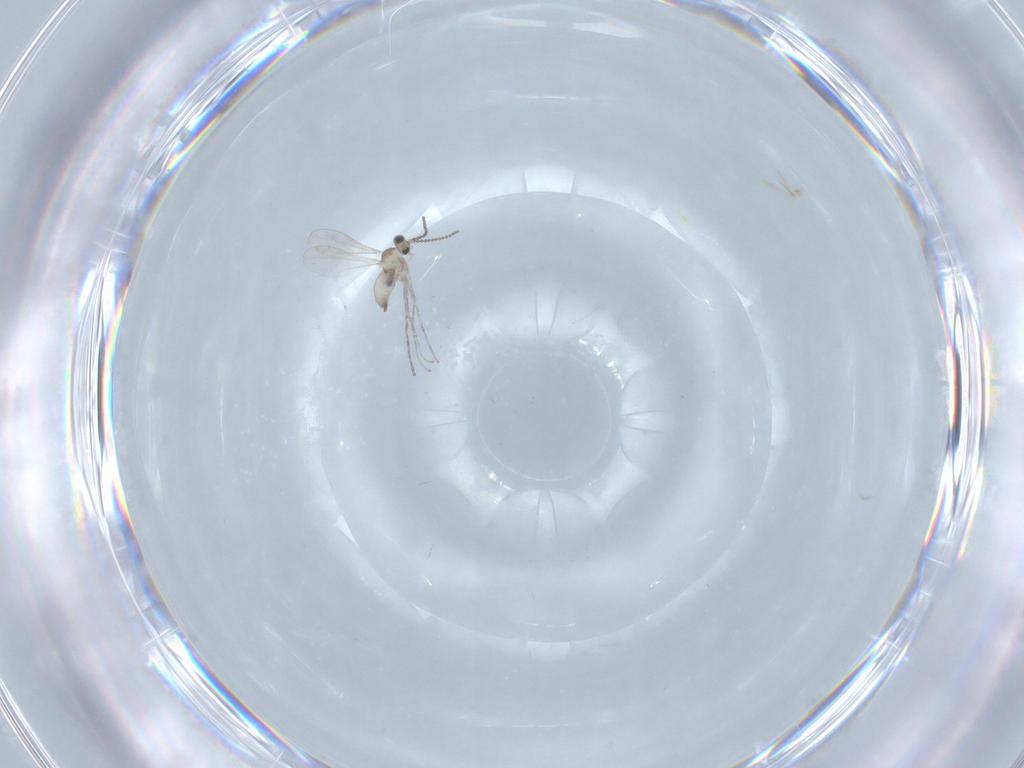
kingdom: Animalia
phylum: Arthropoda
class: Insecta
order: Diptera
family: Cecidomyiidae
